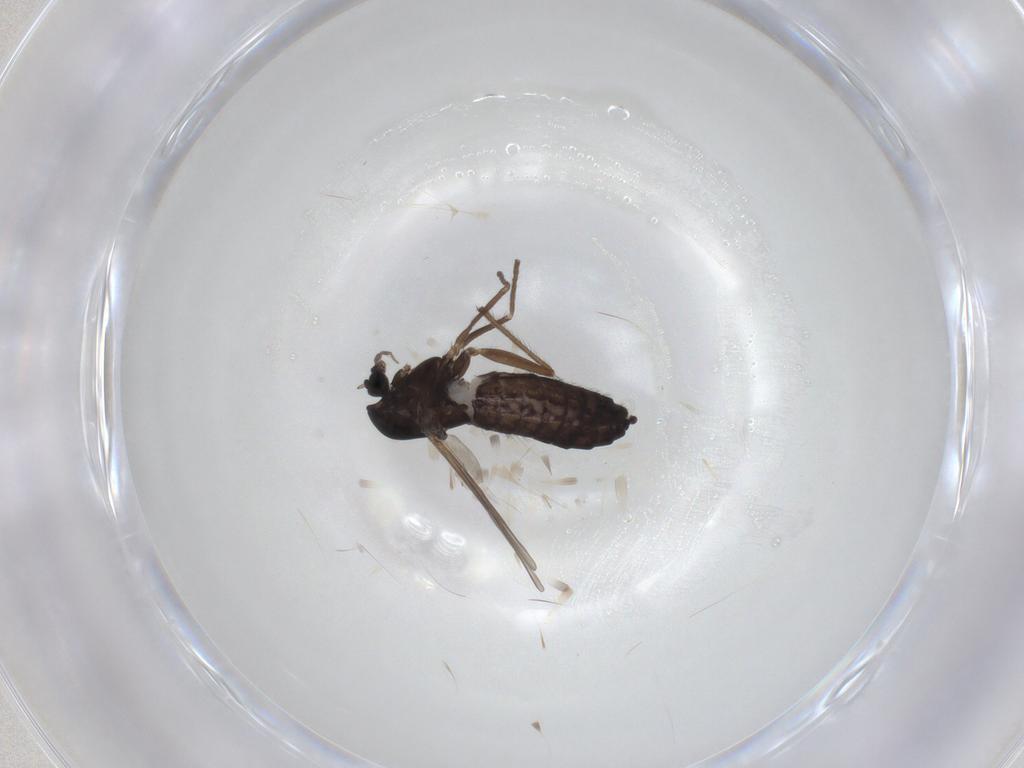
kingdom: Animalia
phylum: Arthropoda
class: Insecta
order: Diptera
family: Chironomidae
